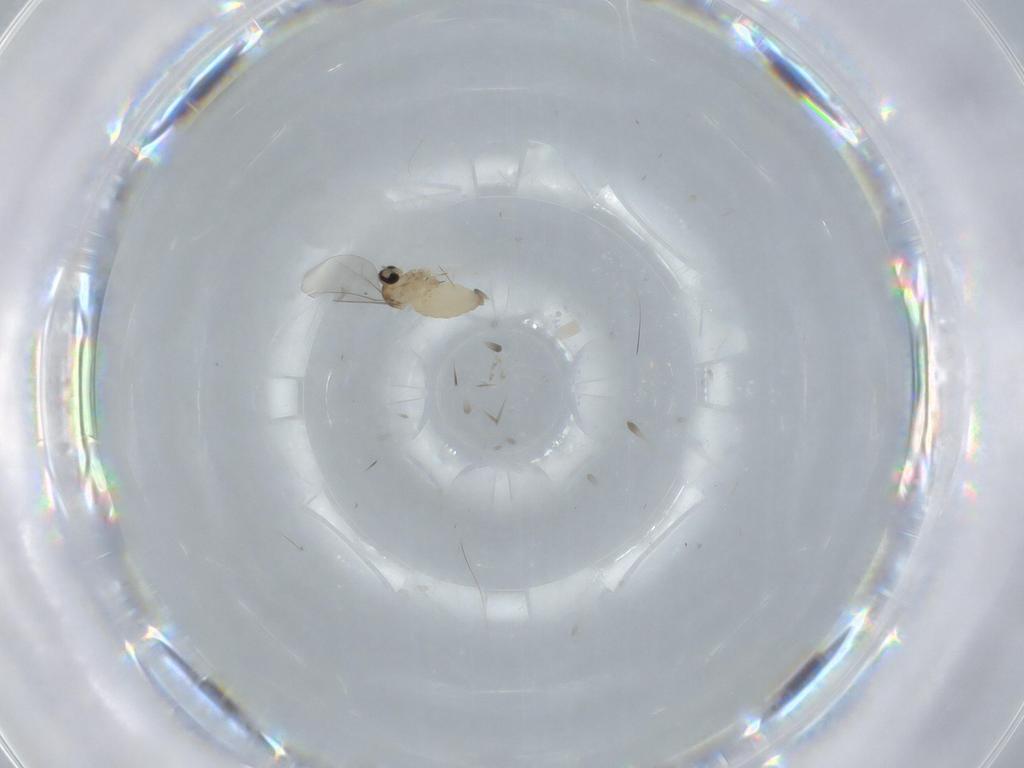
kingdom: Animalia
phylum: Arthropoda
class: Insecta
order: Diptera
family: Cecidomyiidae
